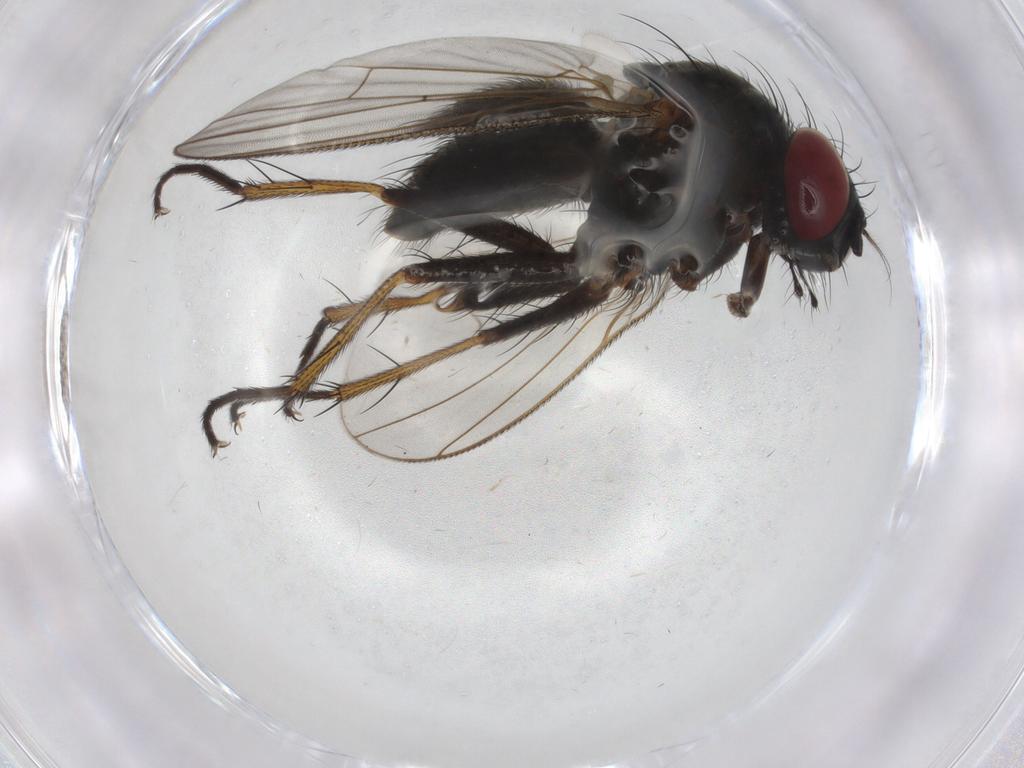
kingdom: Animalia
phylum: Arthropoda
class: Insecta
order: Diptera
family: Muscidae
